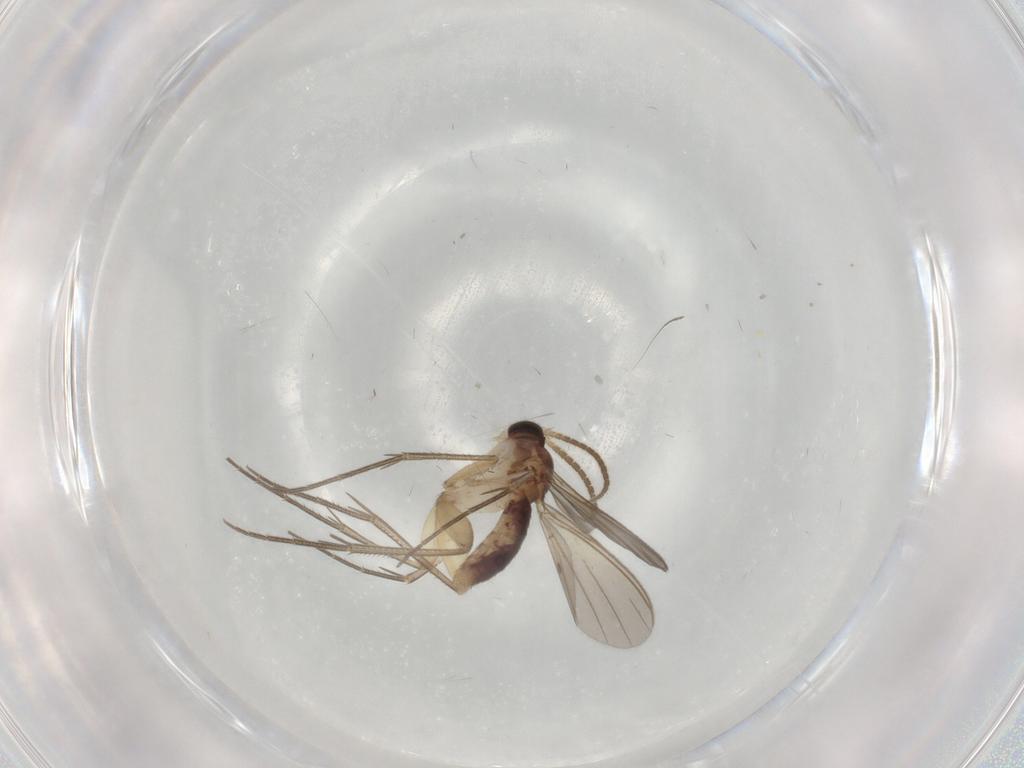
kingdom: Animalia
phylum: Arthropoda
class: Insecta
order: Diptera
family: Mycetophilidae
